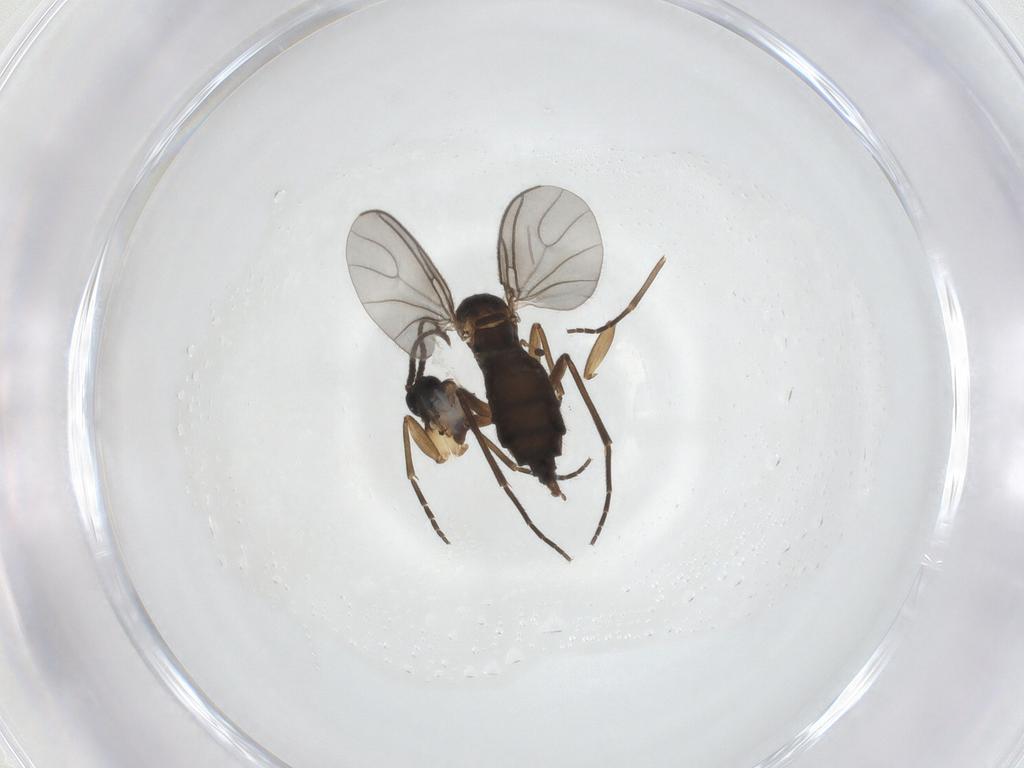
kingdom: Animalia
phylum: Arthropoda
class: Insecta
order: Diptera
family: Sciaridae
